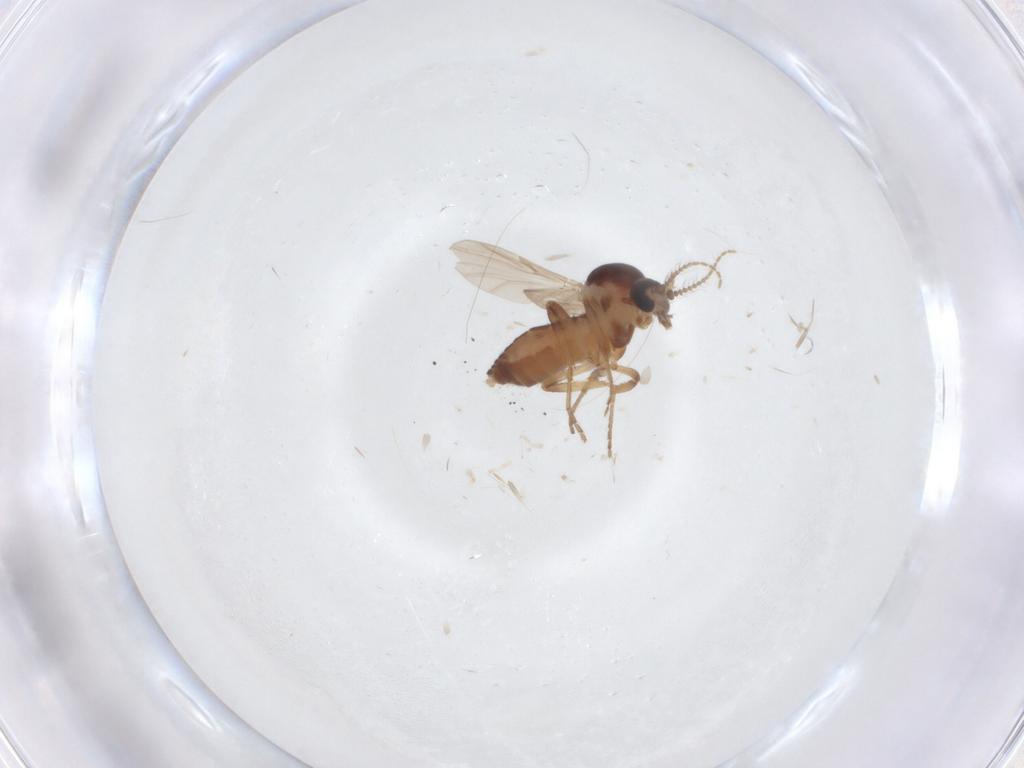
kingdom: Animalia
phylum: Arthropoda
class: Insecta
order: Diptera
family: Ceratopogonidae
